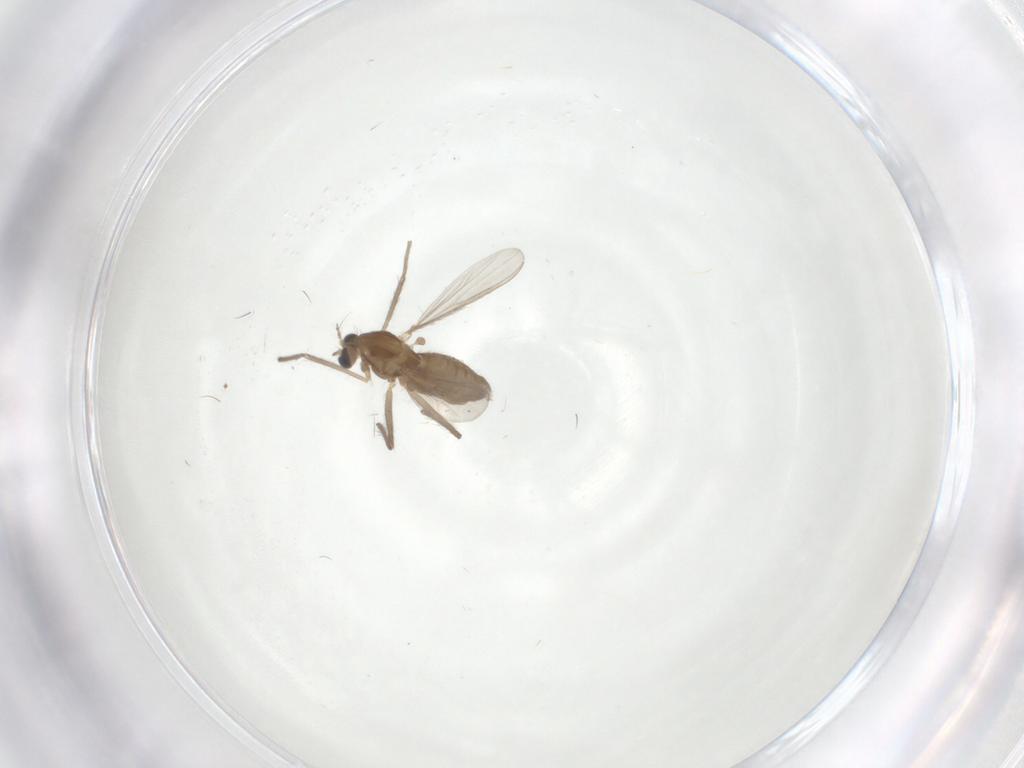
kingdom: Animalia
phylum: Arthropoda
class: Insecta
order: Diptera
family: Chironomidae
